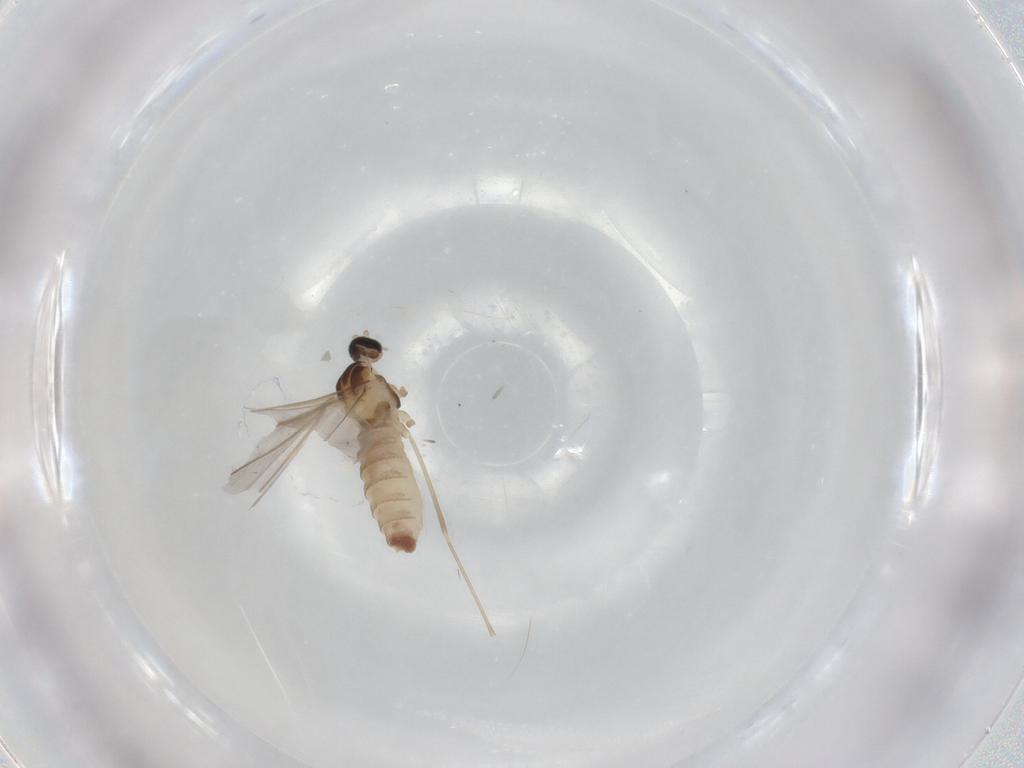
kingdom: Animalia
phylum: Arthropoda
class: Insecta
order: Diptera
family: Cecidomyiidae
